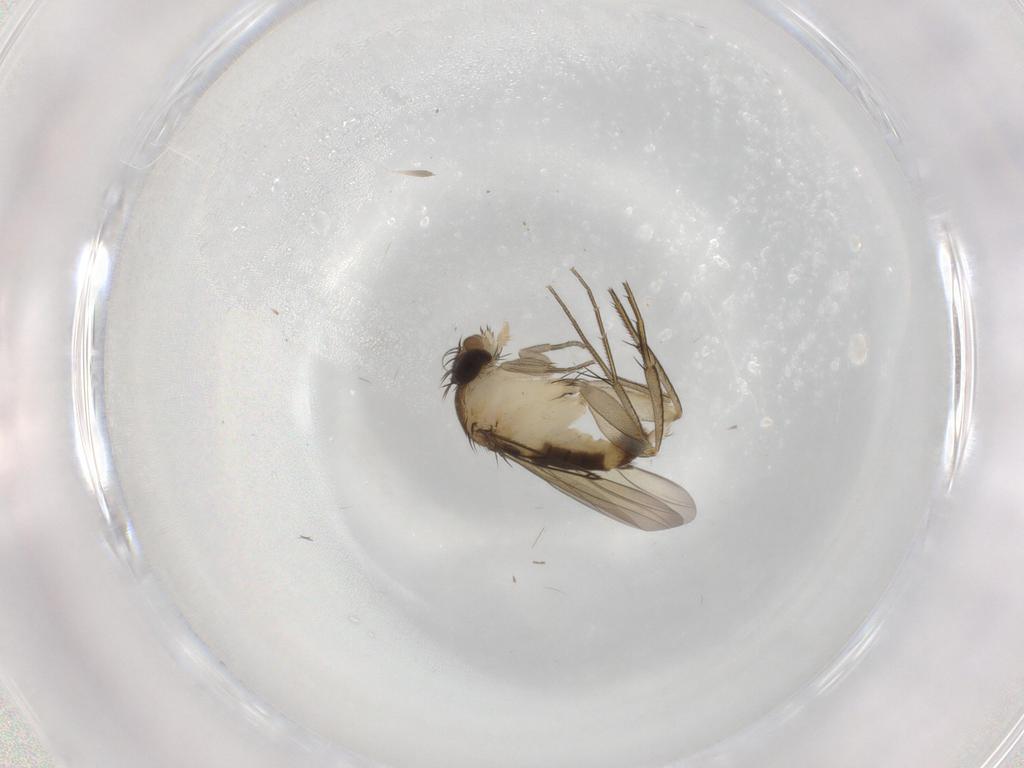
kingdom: Animalia
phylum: Arthropoda
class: Insecta
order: Diptera
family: Phoridae
